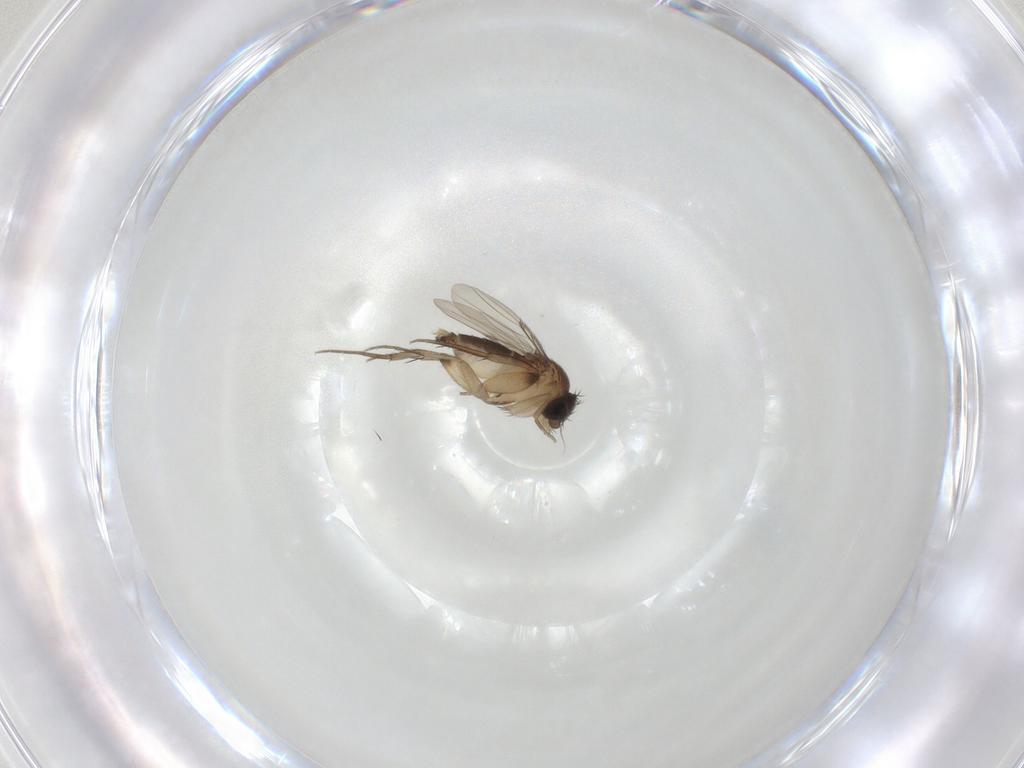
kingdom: Animalia
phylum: Arthropoda
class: Insecta
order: Diptera
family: Phoridae
